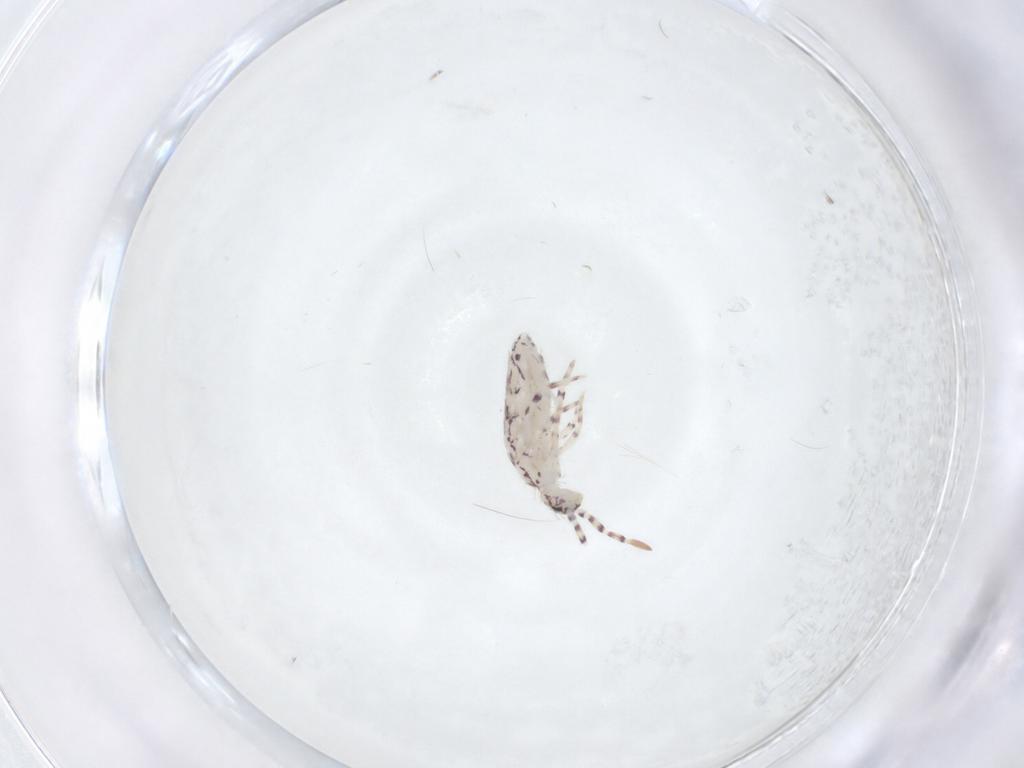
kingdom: Animalia
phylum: Arthropoda
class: Collembola
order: Entomobryomorpha
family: Entomobryidae
